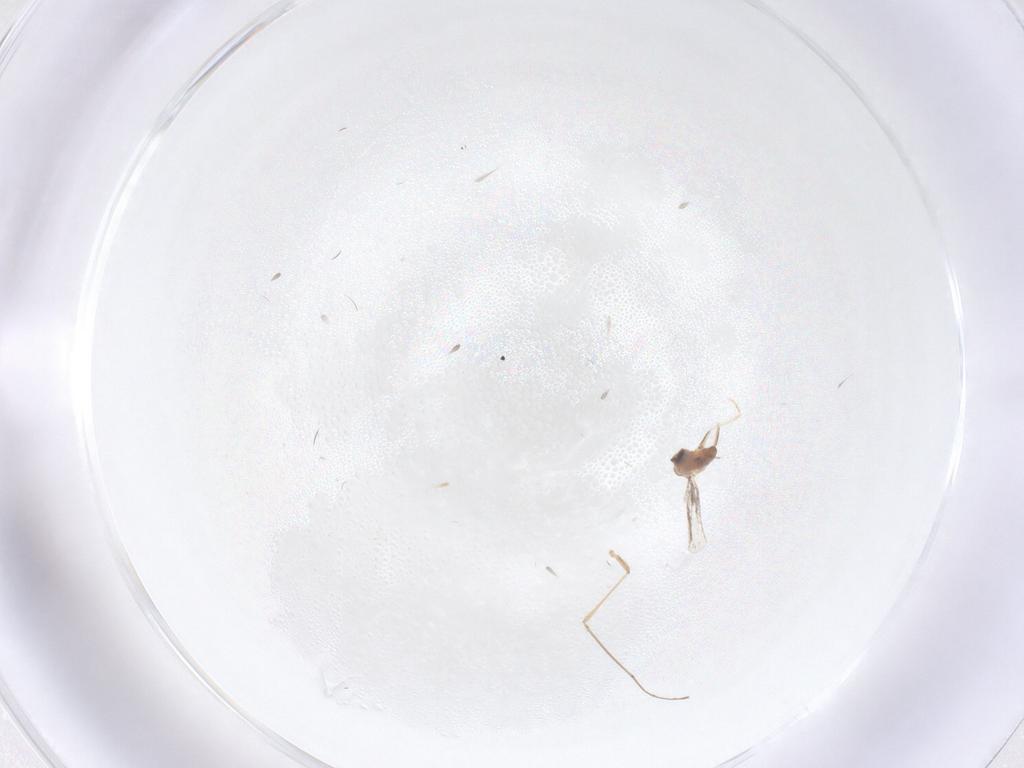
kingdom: Animalia
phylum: Arthropoda
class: Insecta
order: Diptera
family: Cecidomyiidae
